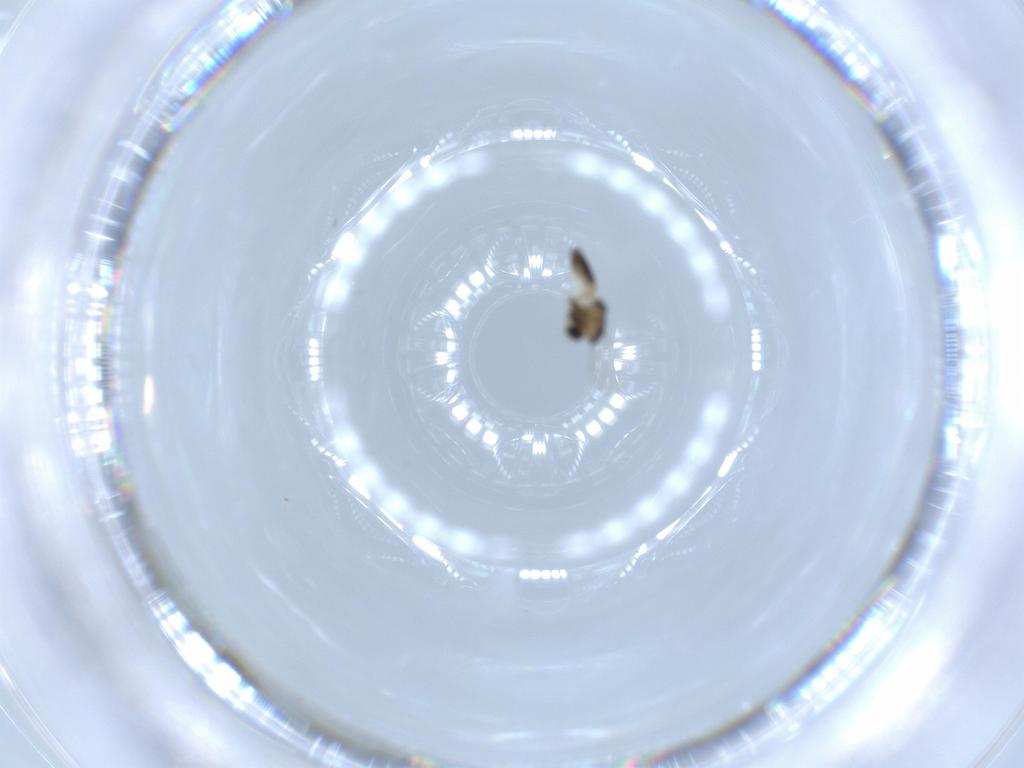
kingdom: Animalia
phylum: Arthropoda
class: Insecta
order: Diptera
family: Chironomidae
